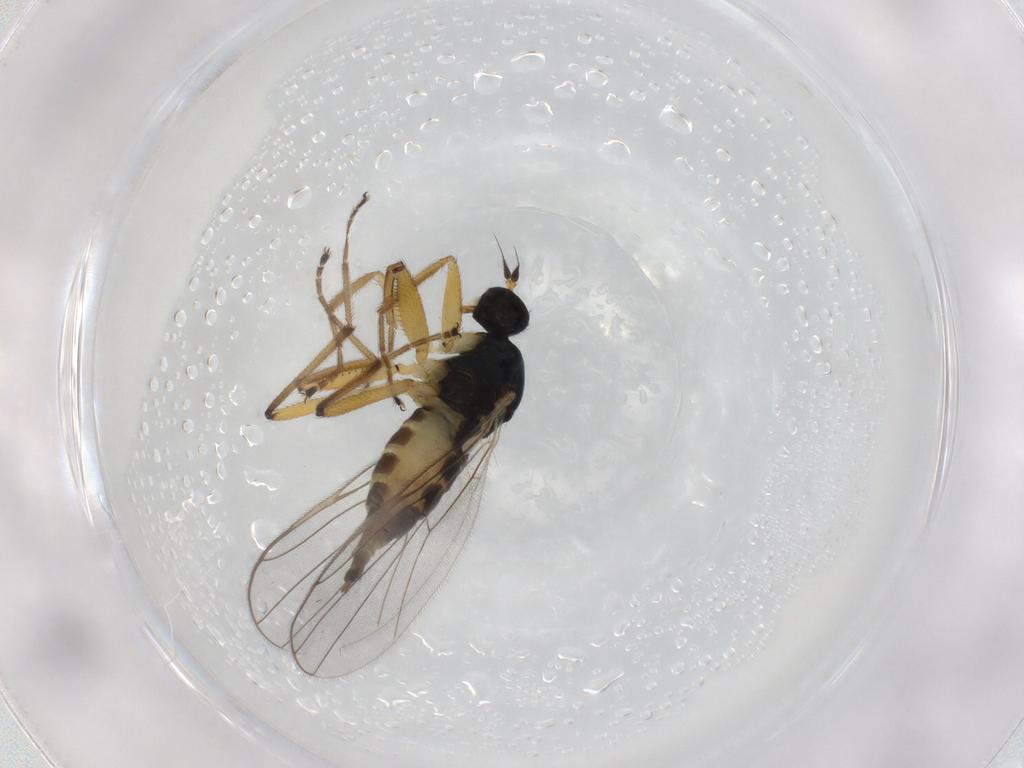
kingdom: Animalia
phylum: Arthropoda
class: Insecta
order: Diptera
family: Hybotidae
